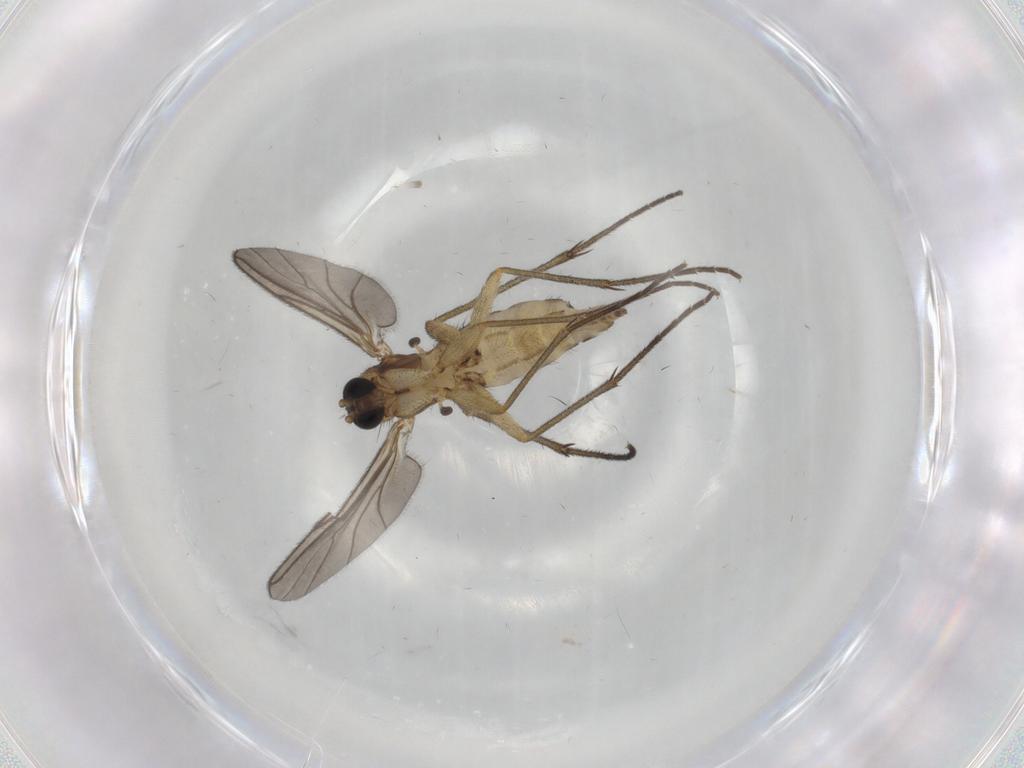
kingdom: Animalia
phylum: Arthropoda
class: Insecta
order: Diptera
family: Sciaridae
